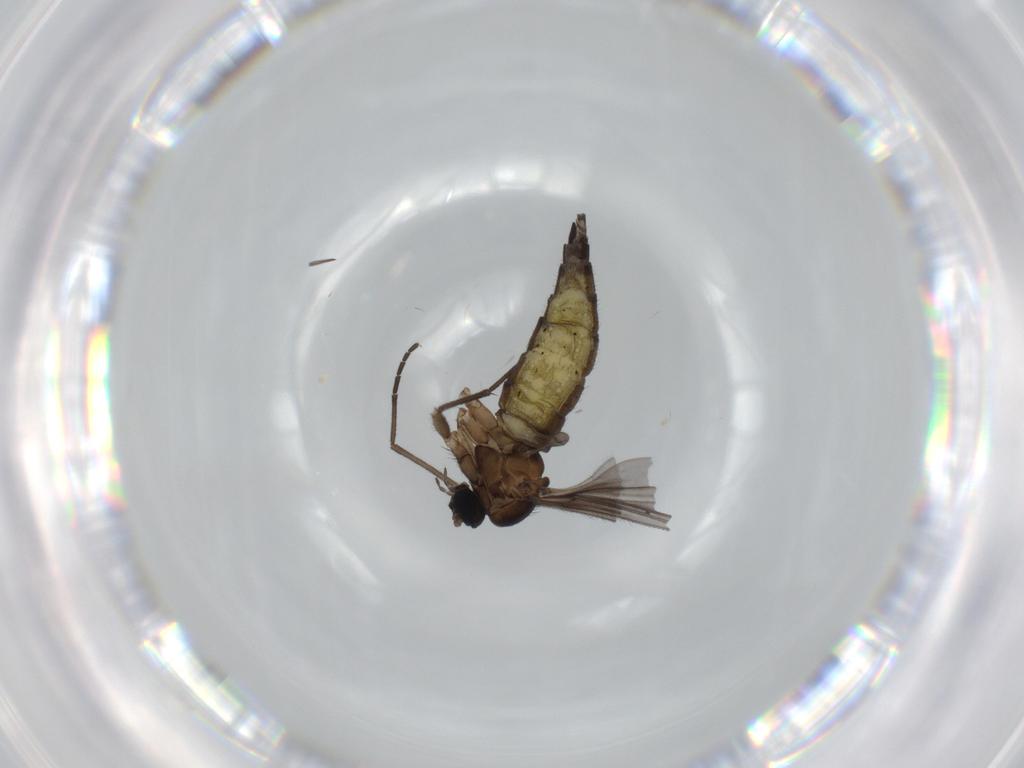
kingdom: Animalia
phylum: Arthropoda
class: Insecta
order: Diptera
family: Sciaridae
